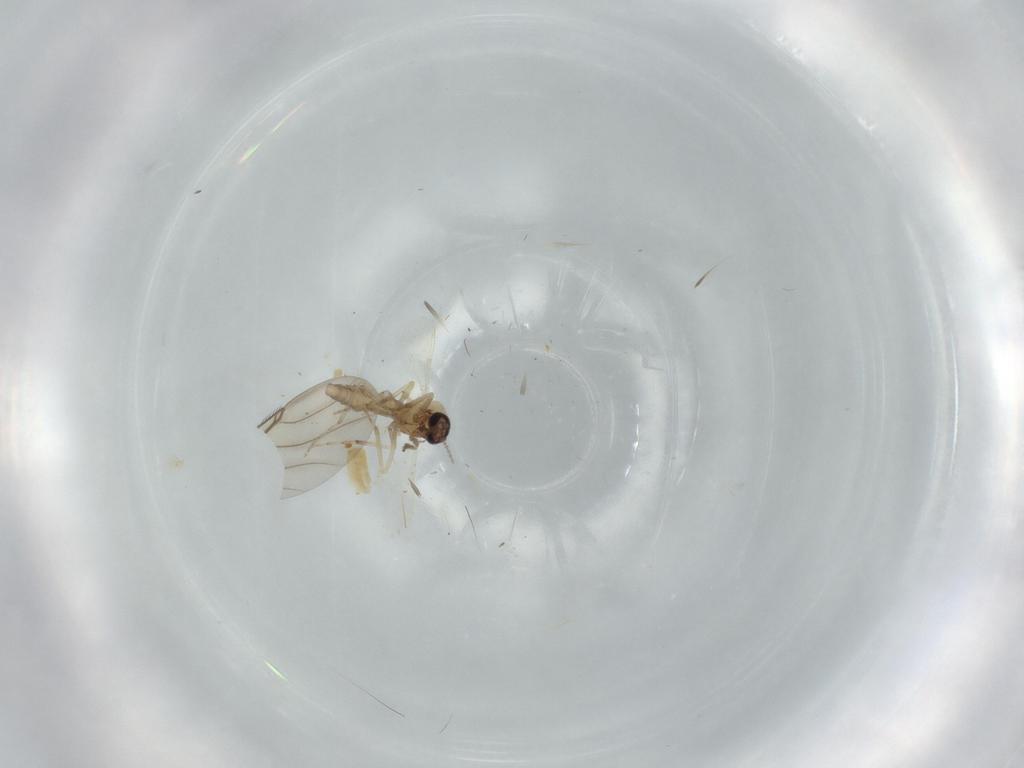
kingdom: Animalia
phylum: Arthropoda
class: Insecta
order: Diptera
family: Phoridae
